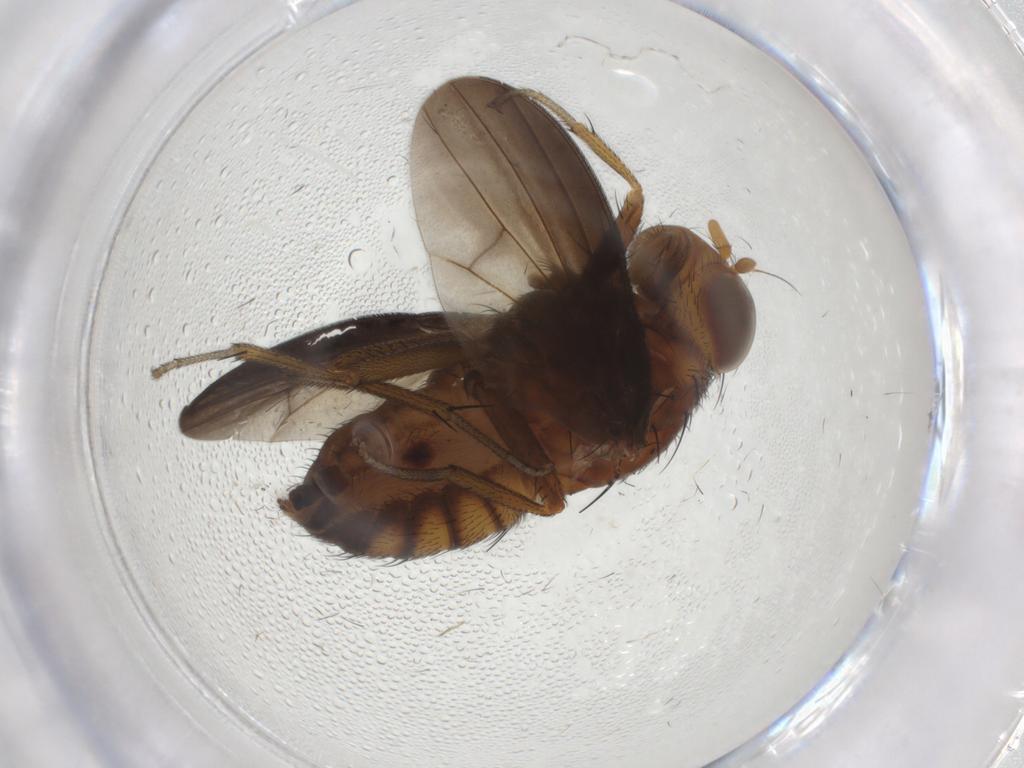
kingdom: Animalia
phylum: Arthropoda
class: Insecta
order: Diptera
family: Chironomidae
